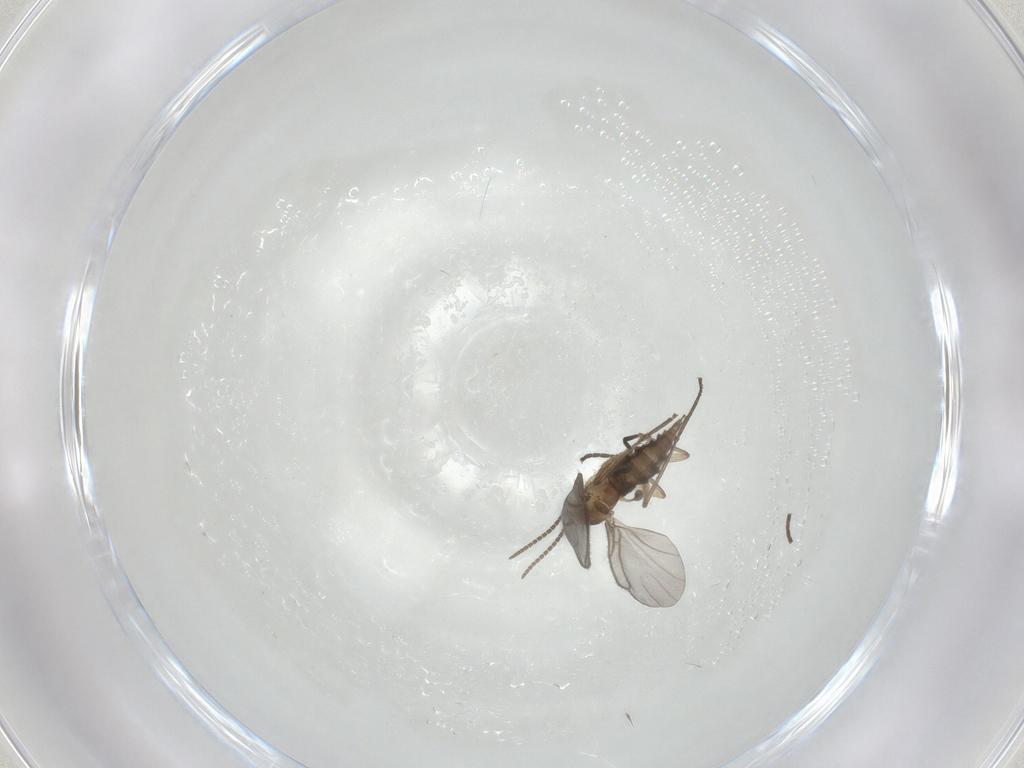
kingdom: Animalia
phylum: Arthropoda
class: Insecta
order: Diptera
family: Sciaridae
